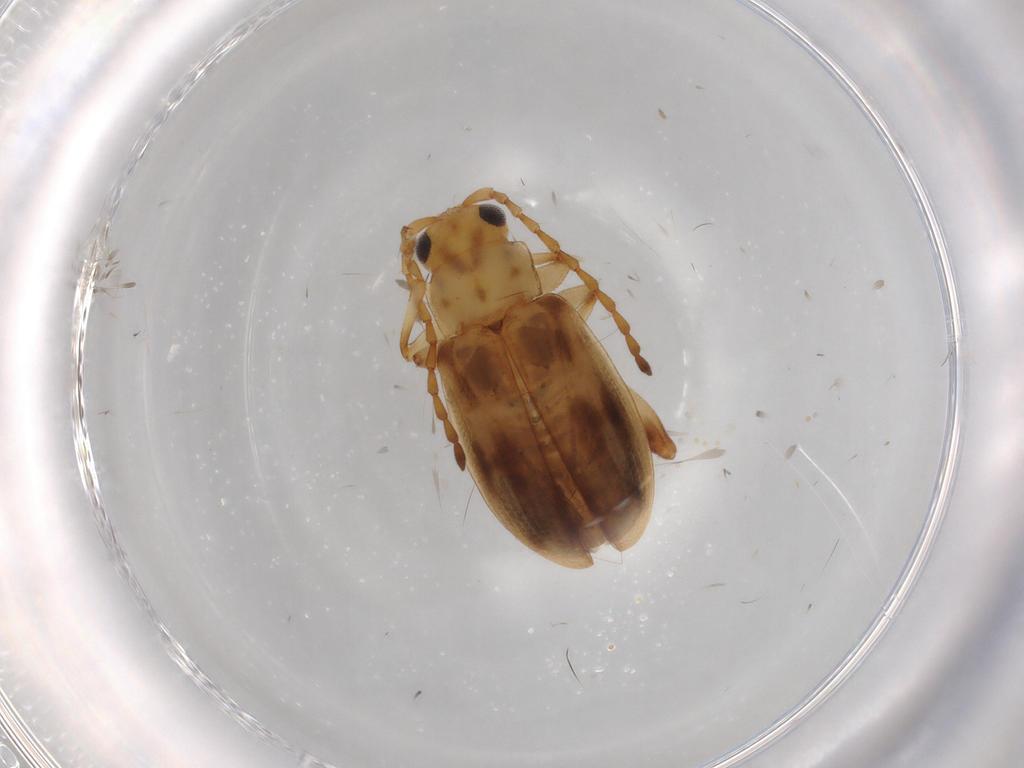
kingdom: Animalia
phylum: Arthropoda
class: Insecta
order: Coleoptera
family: Chrysomelidae
